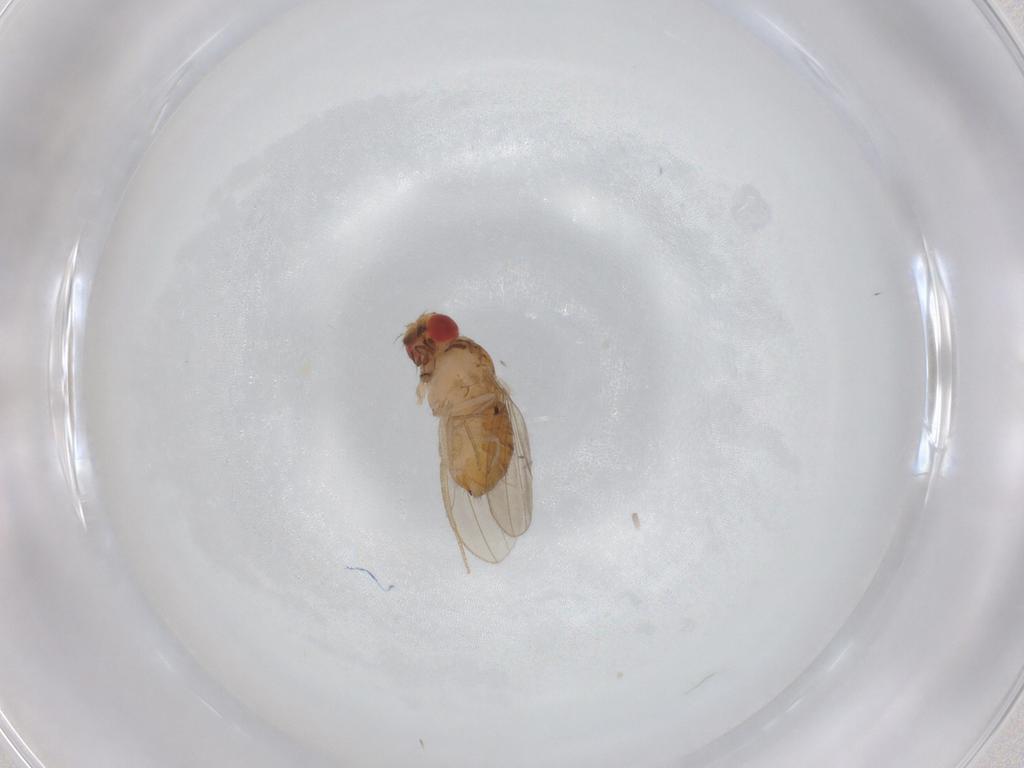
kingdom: Animalia
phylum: Arthropoda
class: Insecta
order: Diptera
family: Drosophilidae
